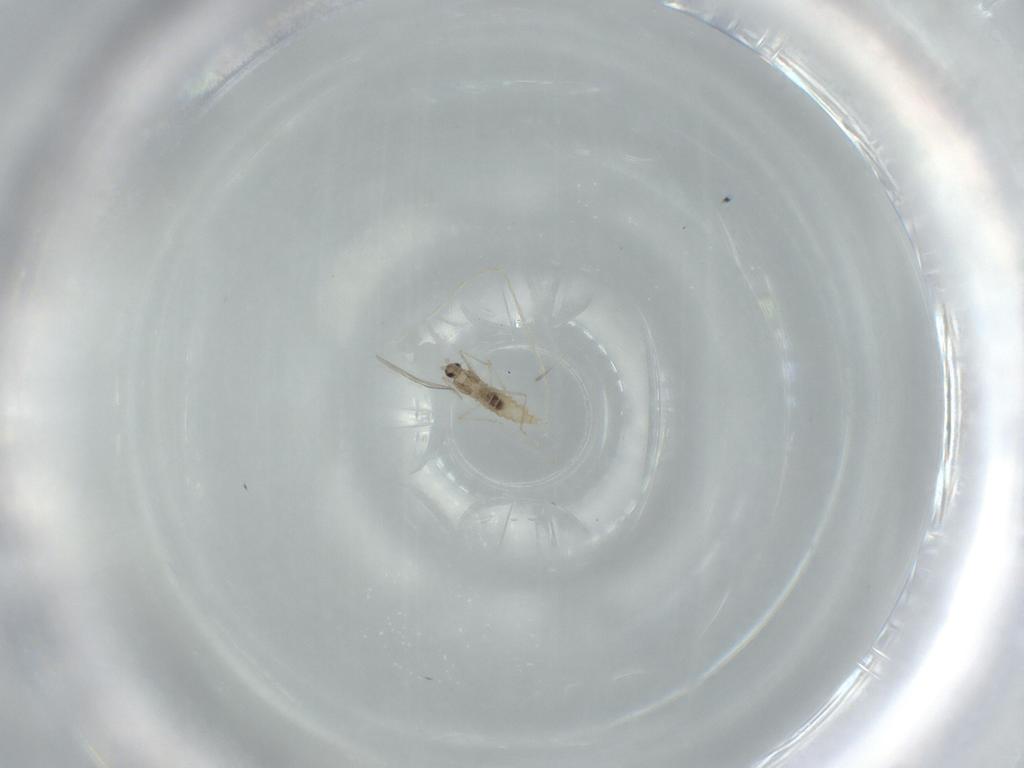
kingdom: Animalia
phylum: Arthropoda
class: Insecta
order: Diptera
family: Cecidomyiidae
